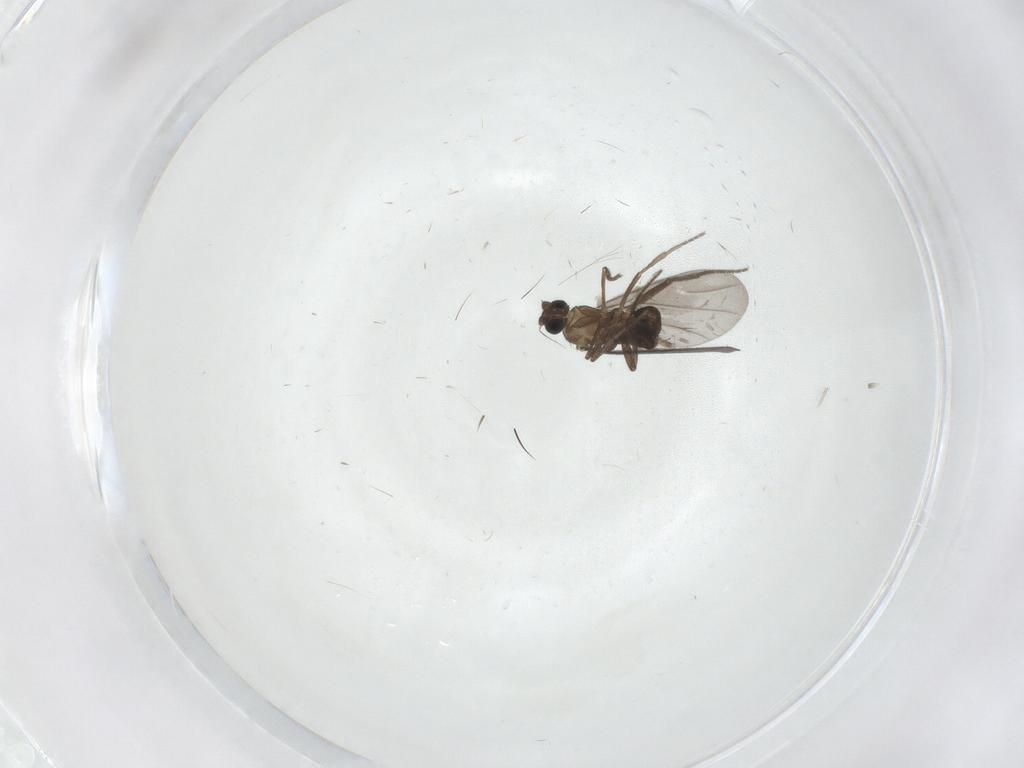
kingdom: Animalia
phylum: Arthropoda
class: Insecta
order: Diptera
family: Phoridae
